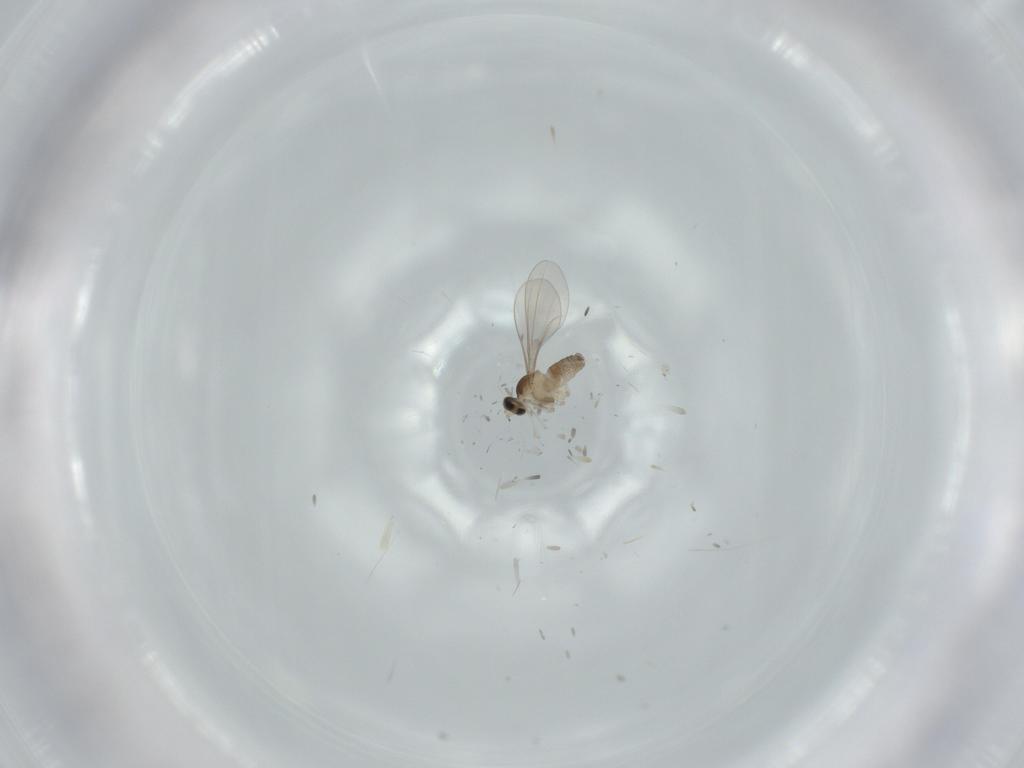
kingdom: Animalia
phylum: Arthropoda
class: Insecta
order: Diptera
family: Cecidomyiidae
